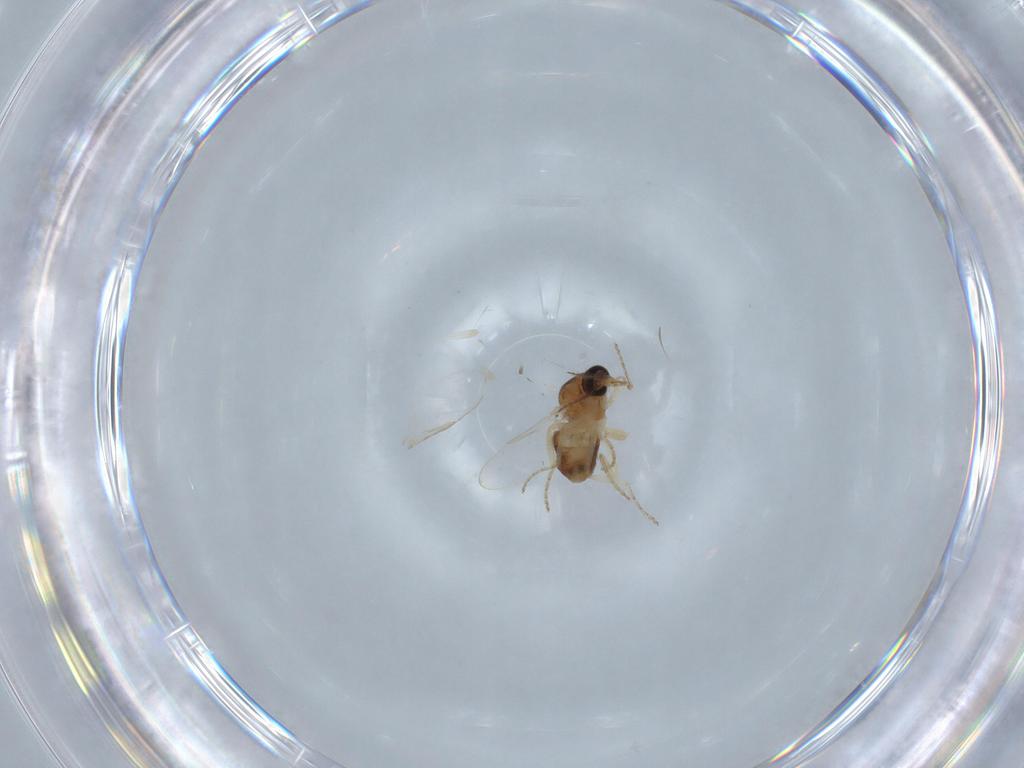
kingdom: Animalia
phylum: Arthropoda
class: Insecta
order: Diptera
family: Ceratopogonidae
